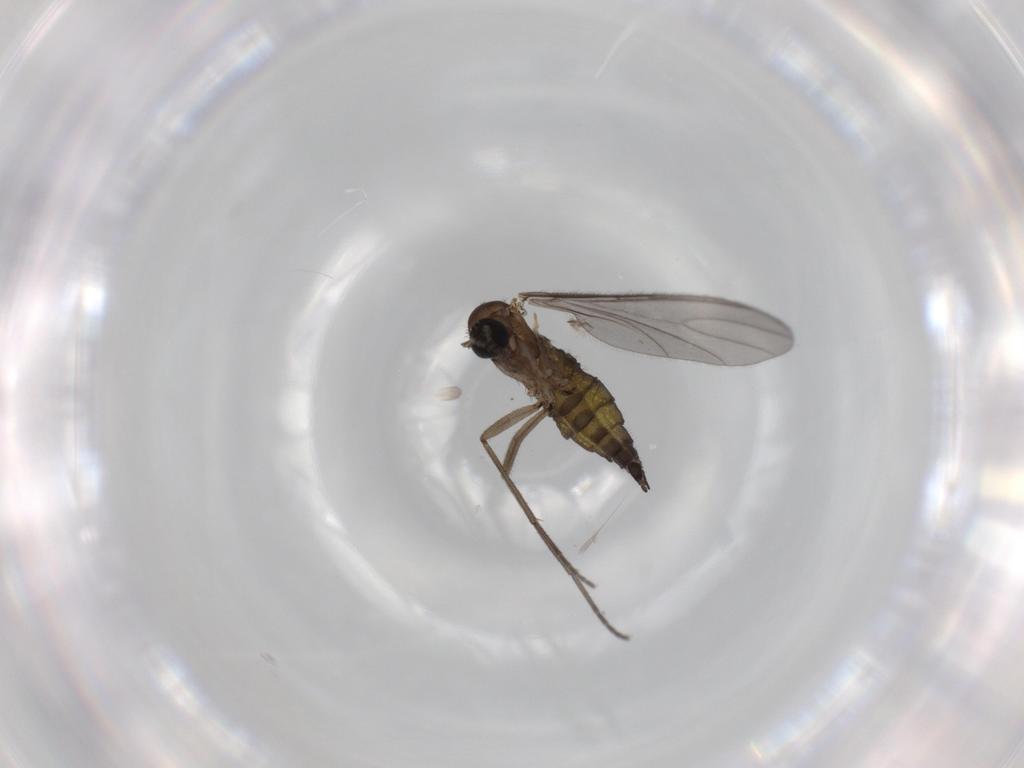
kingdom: Animalia
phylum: Arthropoda
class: Insecta
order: Diptera
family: Sciaridae
